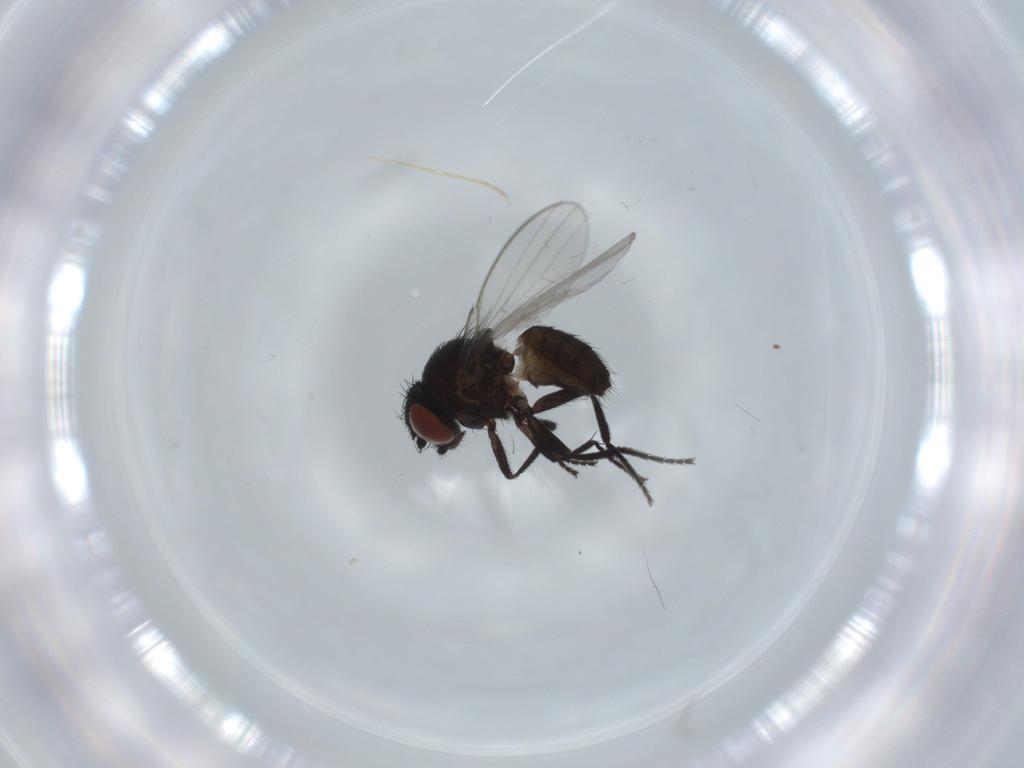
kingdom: Animalia
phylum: Arthropoda
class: Insecta
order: Diptera
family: Milichiidae
